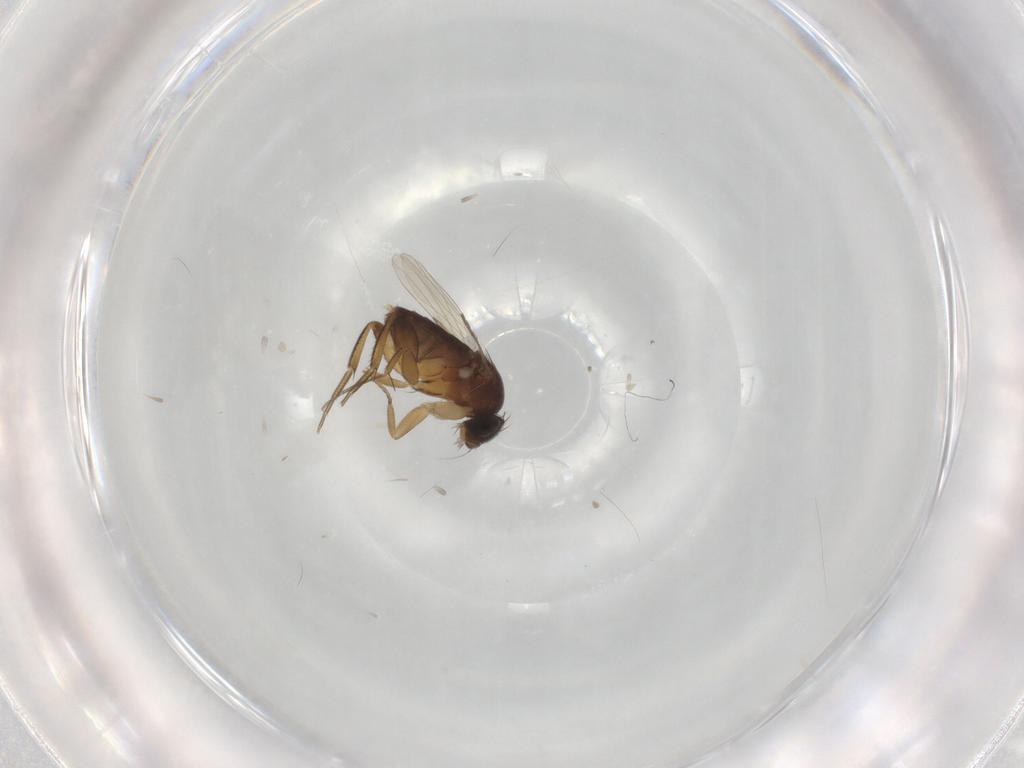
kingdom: Animalia
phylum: Arthropoda
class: Insecta
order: Diptera
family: Phoridae
